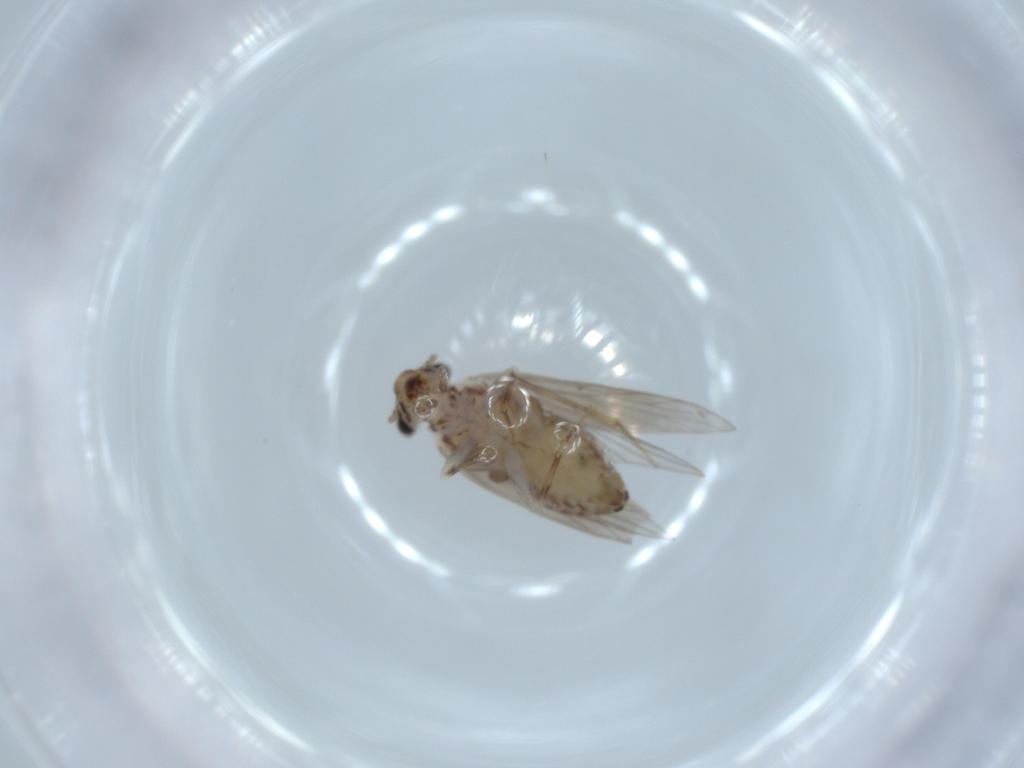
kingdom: Animalia
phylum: Arthropoda
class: Insecta
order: Psocodea
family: Lepidopsocidae
